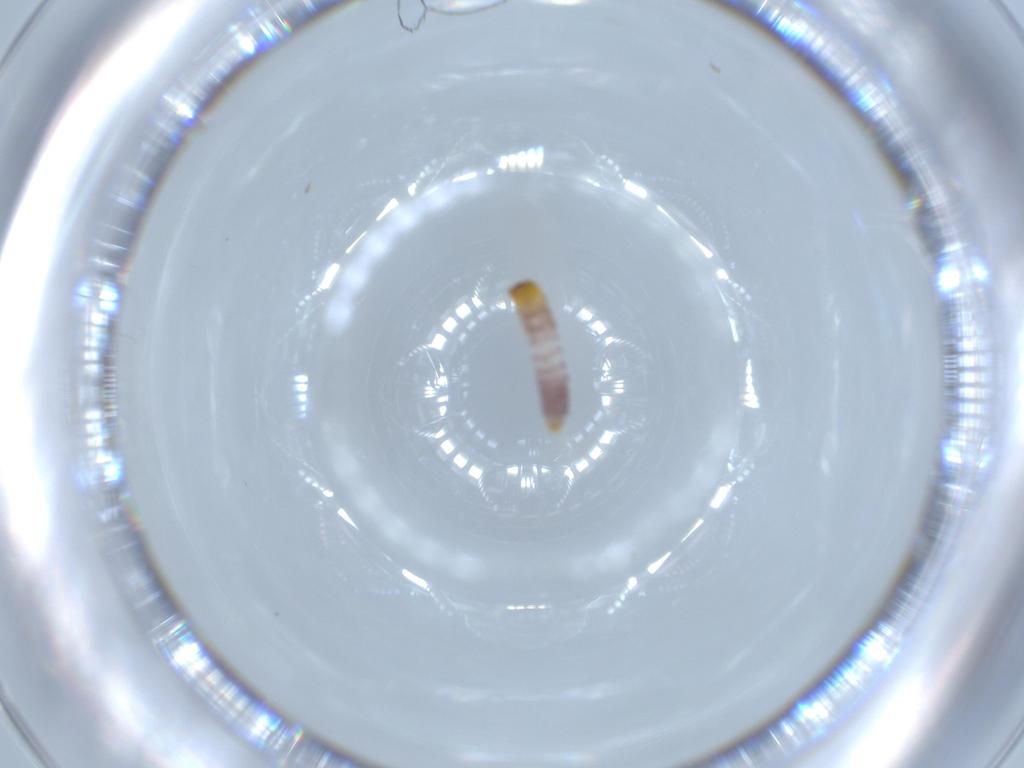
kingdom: Animalia
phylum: Arthropoda
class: Insecta
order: Coleoptera
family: Cleridae
